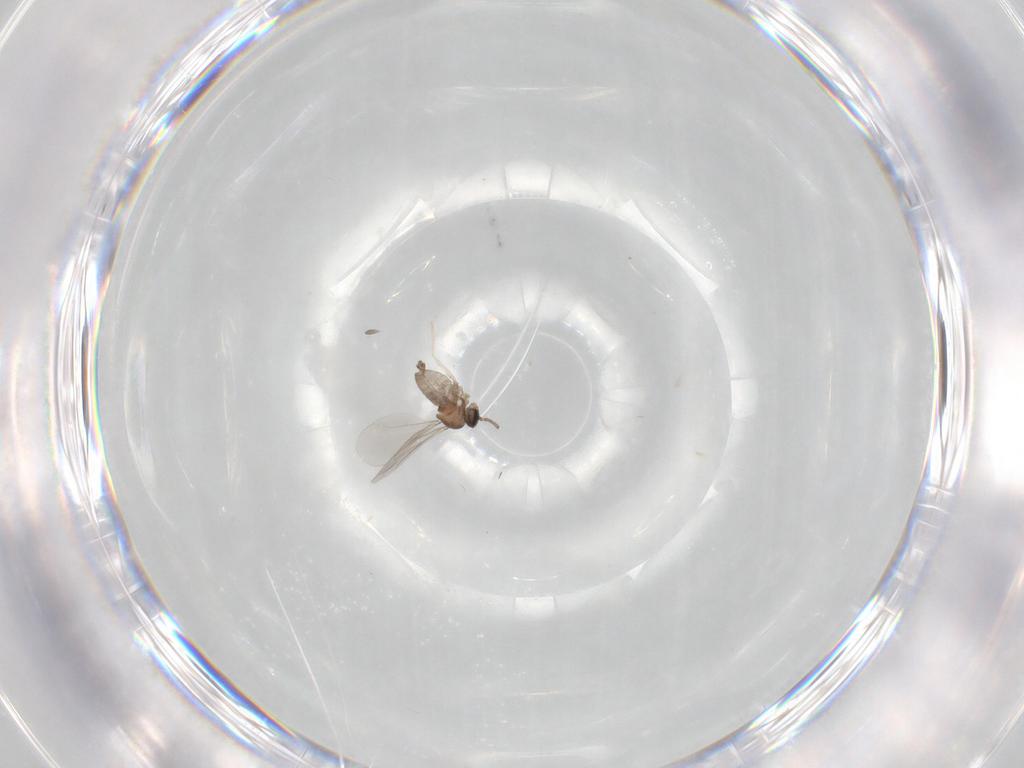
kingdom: Animalia
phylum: Arthropoda
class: Insecta
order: Diptera
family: Cecidomyiidae
